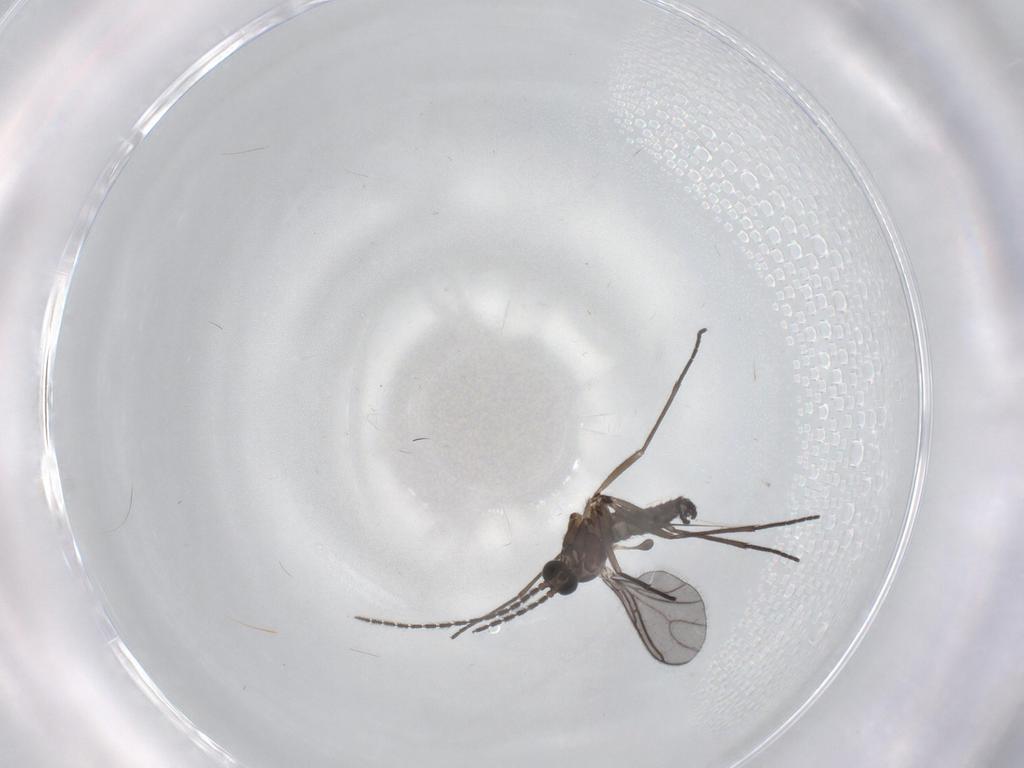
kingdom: Animalia
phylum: Arthropoda
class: Insecta
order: Diptera
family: Sciaridae
